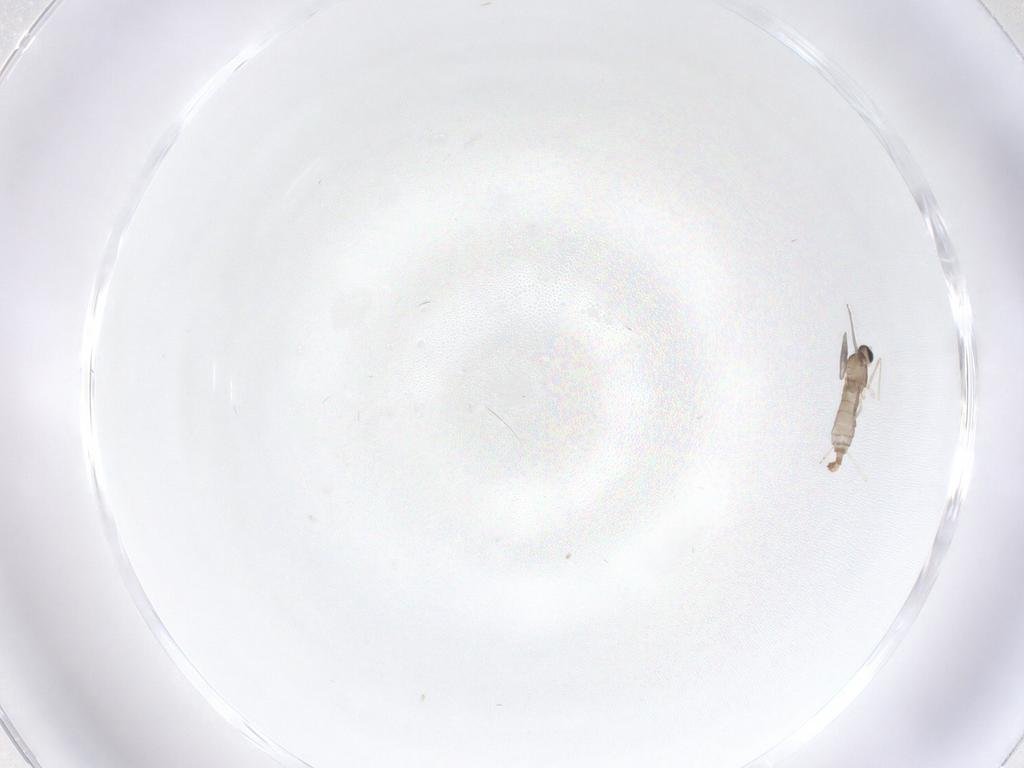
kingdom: Animalia
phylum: Arthropoda
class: Insecta
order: Diptera
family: Cecidomyiidae
